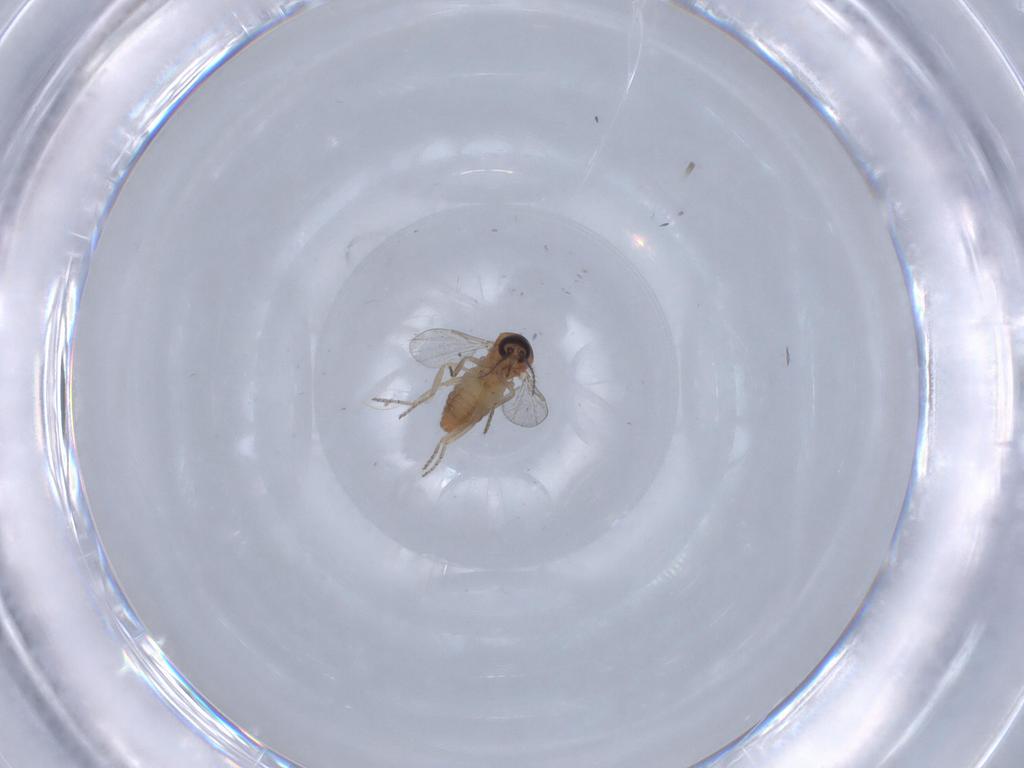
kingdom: Animalia
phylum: Arthropoda
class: Insecta
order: Diptera
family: Ceratopogonidae
